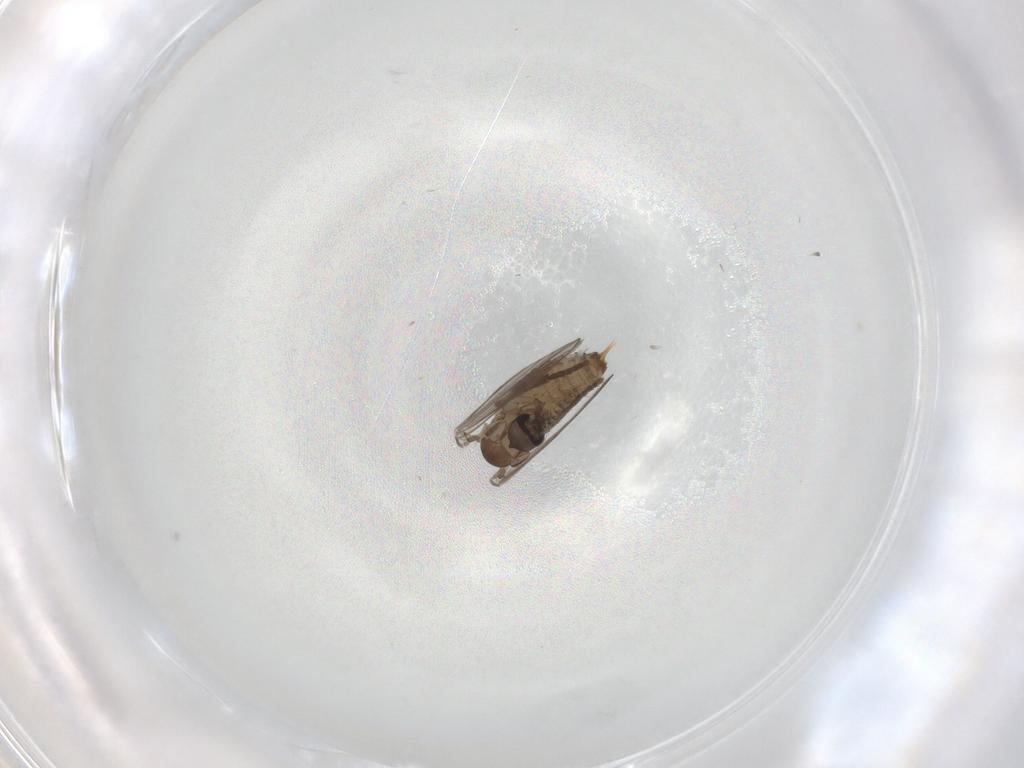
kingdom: Animalia
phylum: Arthropoda
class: Insecta
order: Diptera
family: Psychodidae
